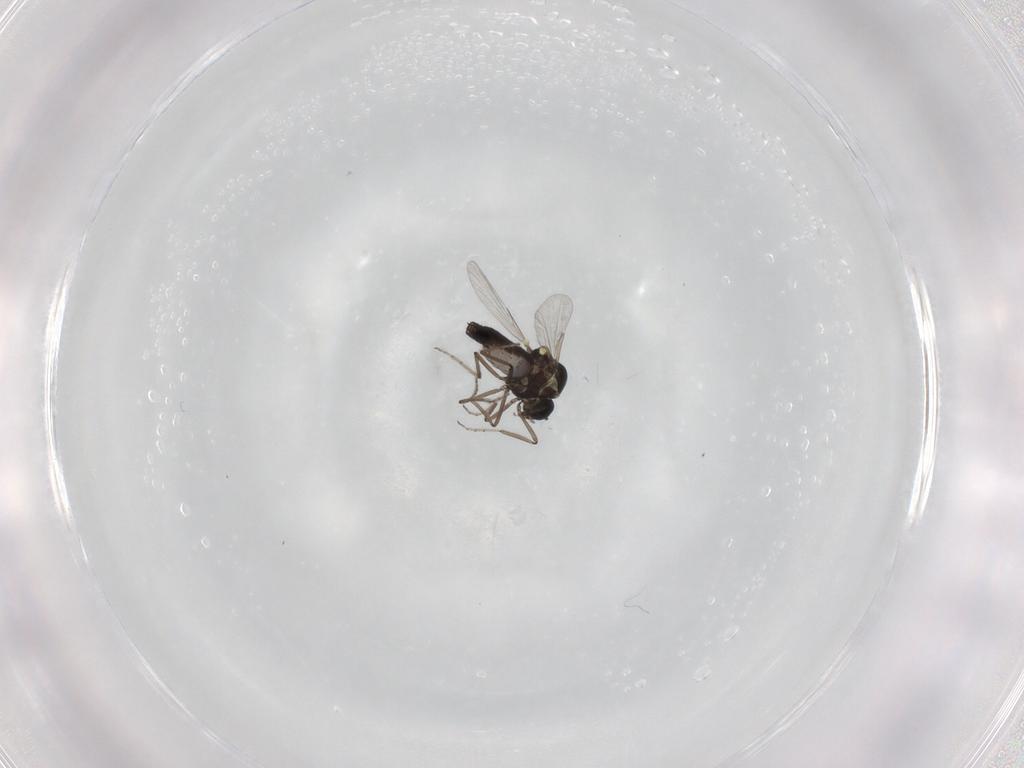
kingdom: Animalia
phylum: Arthropoda
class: Insecta
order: Diptera
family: Ceratopogonidae
